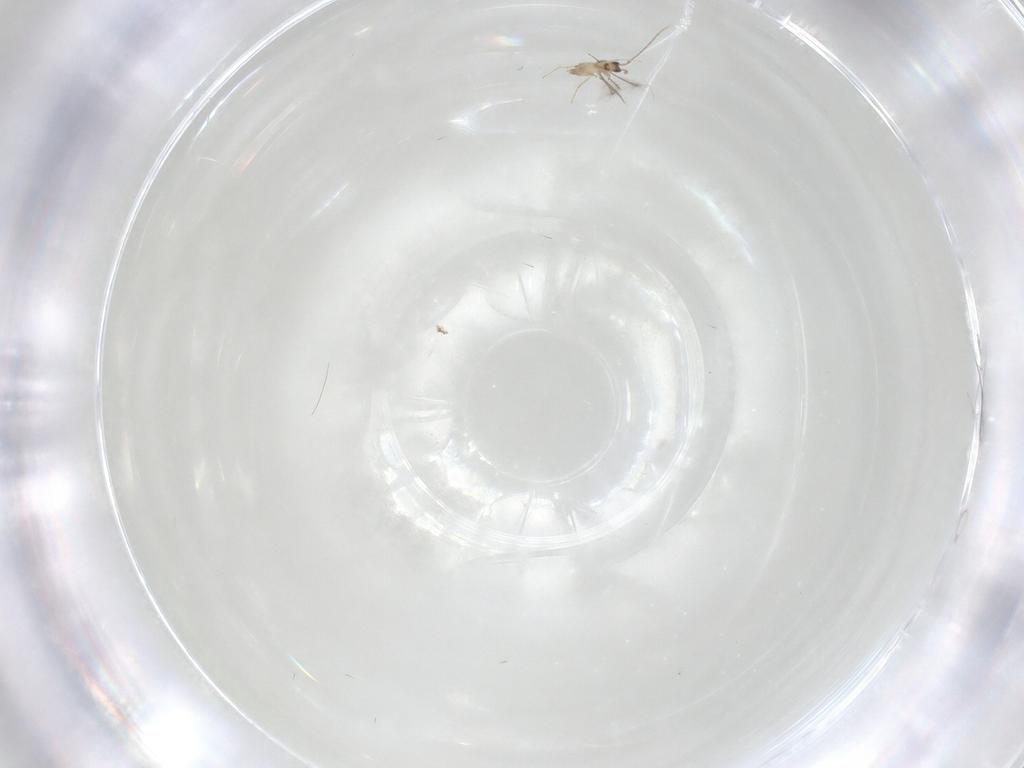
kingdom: Animalia
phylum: Arthropoda
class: Insecta
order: Hymenoptera
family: Mymaridae
